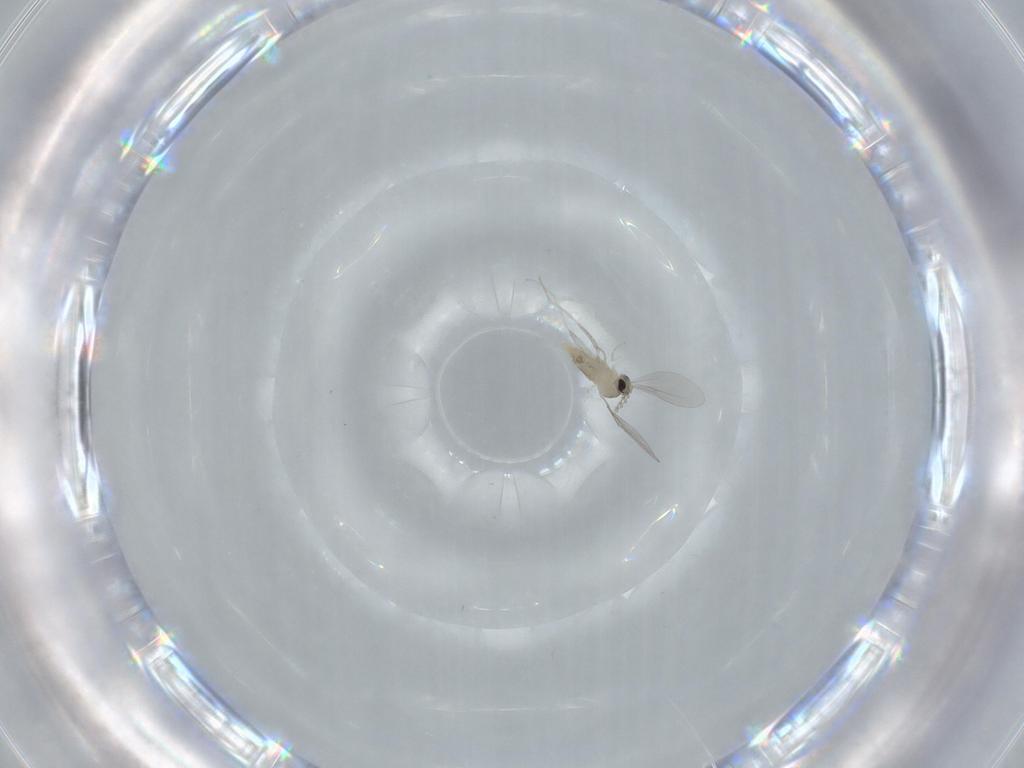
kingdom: Animalia
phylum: Arthropoda
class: Insecta
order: Diptera
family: Cecidomyiidae
